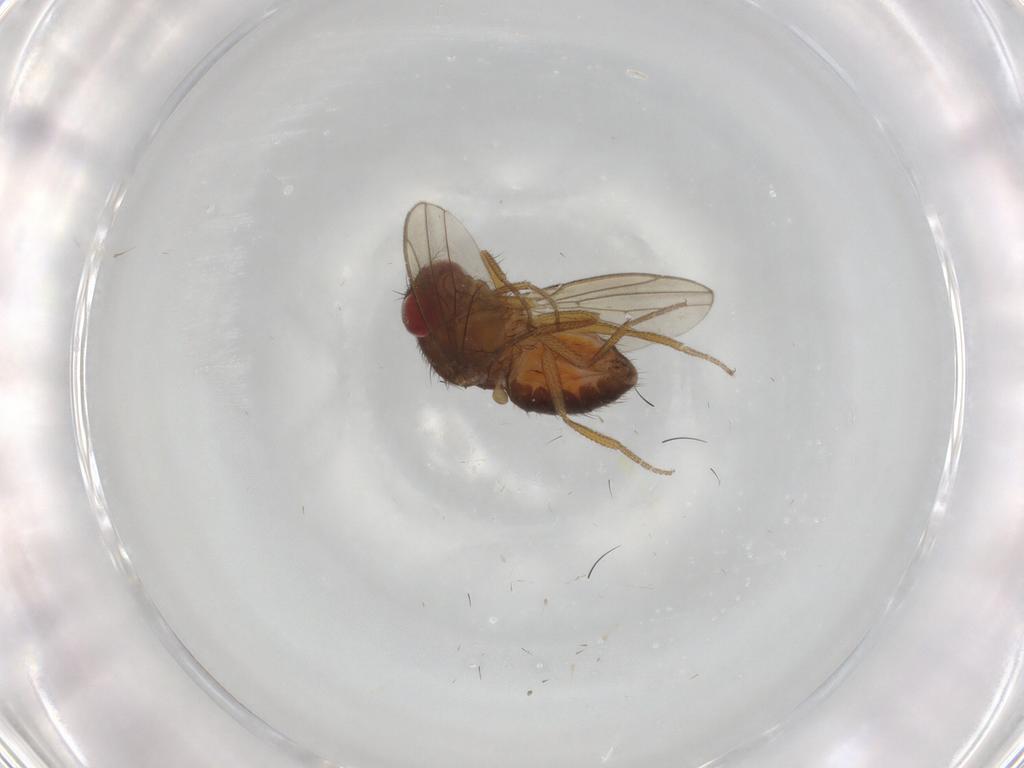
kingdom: Animalia
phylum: Arthropoda
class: Insecta
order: Diptera
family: Drosophilidae
